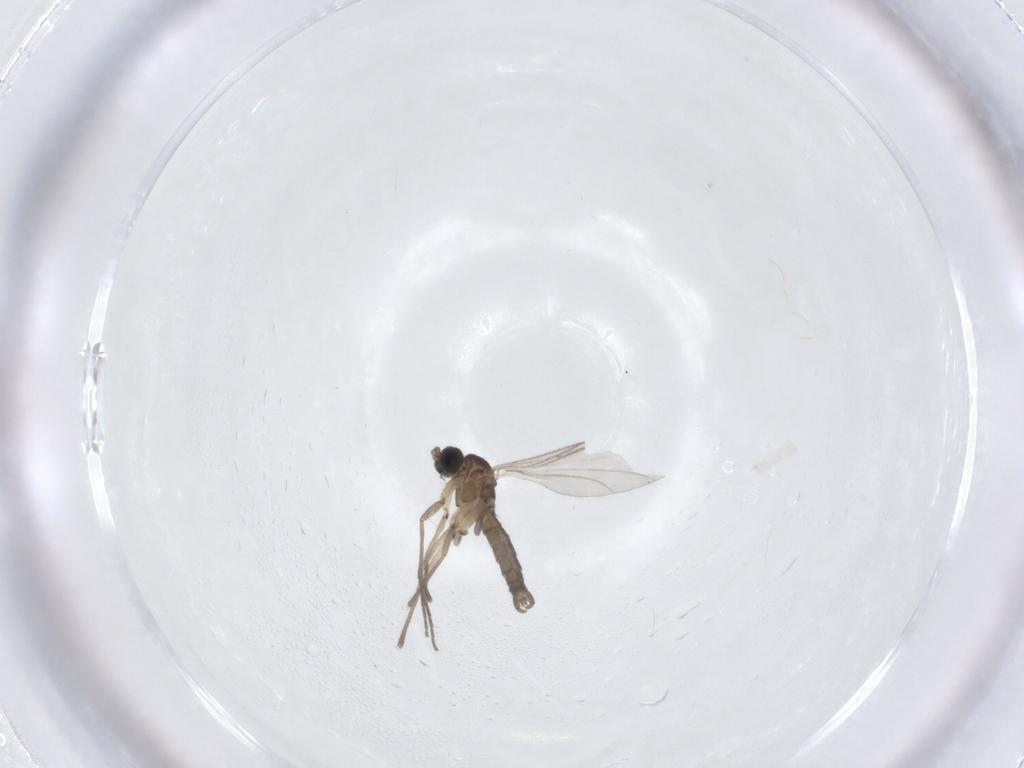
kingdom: Animalia
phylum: Arthropoda
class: Insecta
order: Diptera
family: Sciaridae
